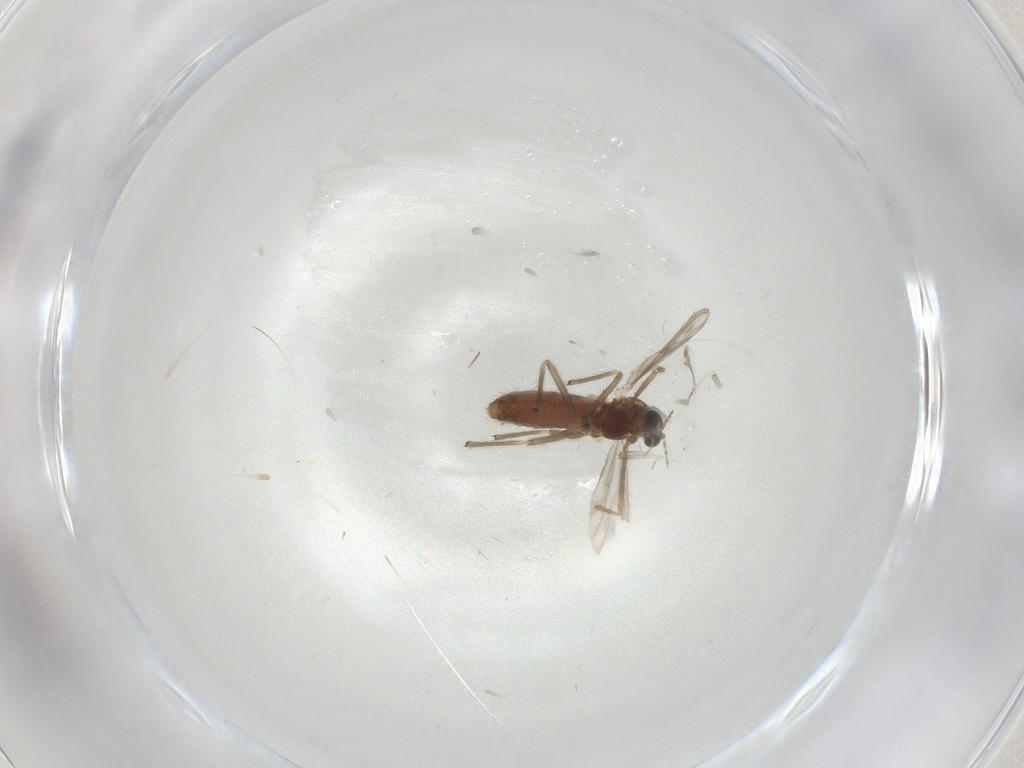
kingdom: Animalia
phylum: Arthropoda
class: Insecta
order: Diptera
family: Chironomidae
